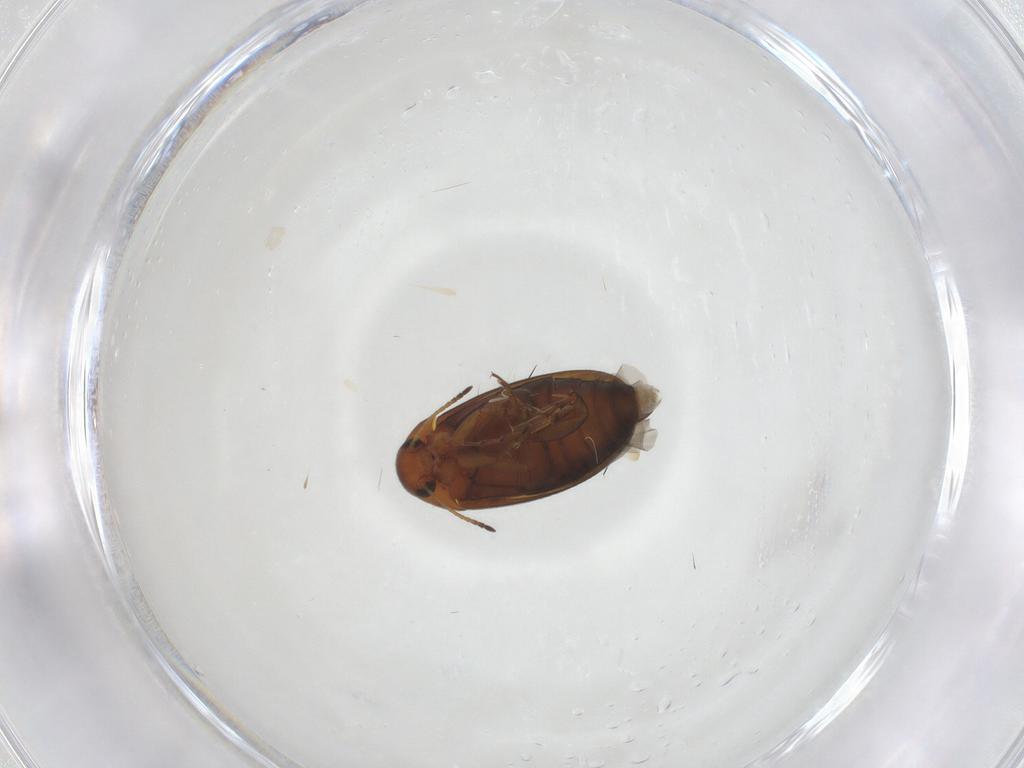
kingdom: Animalia
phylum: Arthropoda
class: Insecta
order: Coleoptera
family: Scraptiidae
